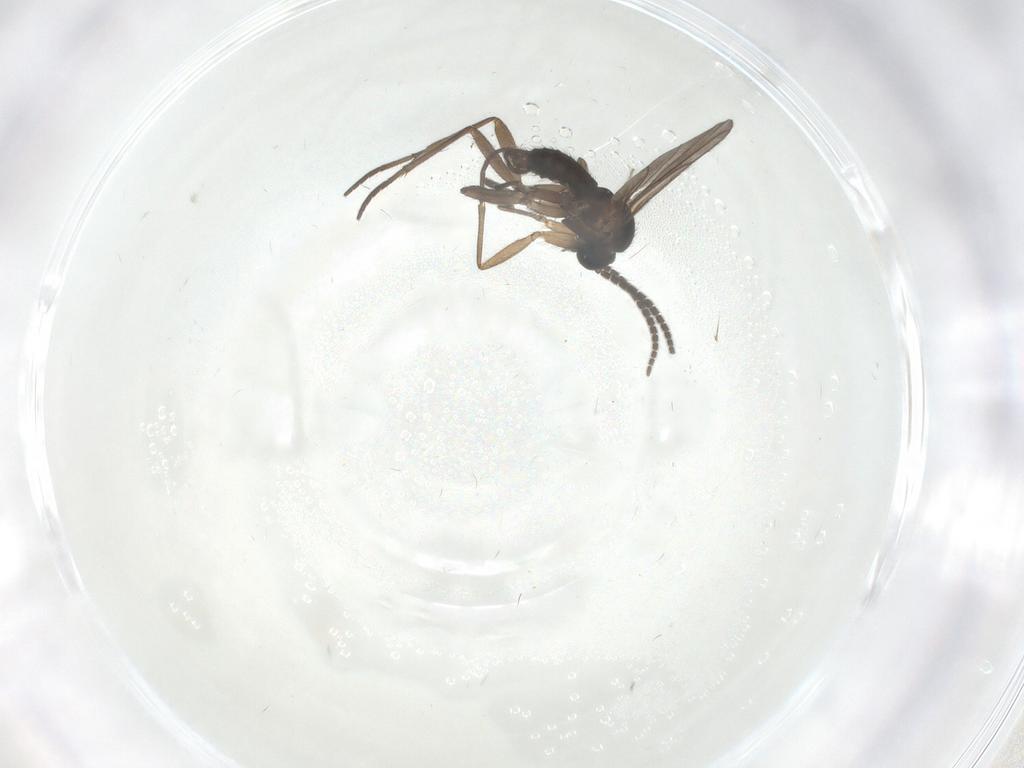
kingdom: Animalia
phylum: Arthropoda
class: Insecta
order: Diptera
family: Sciaridae
